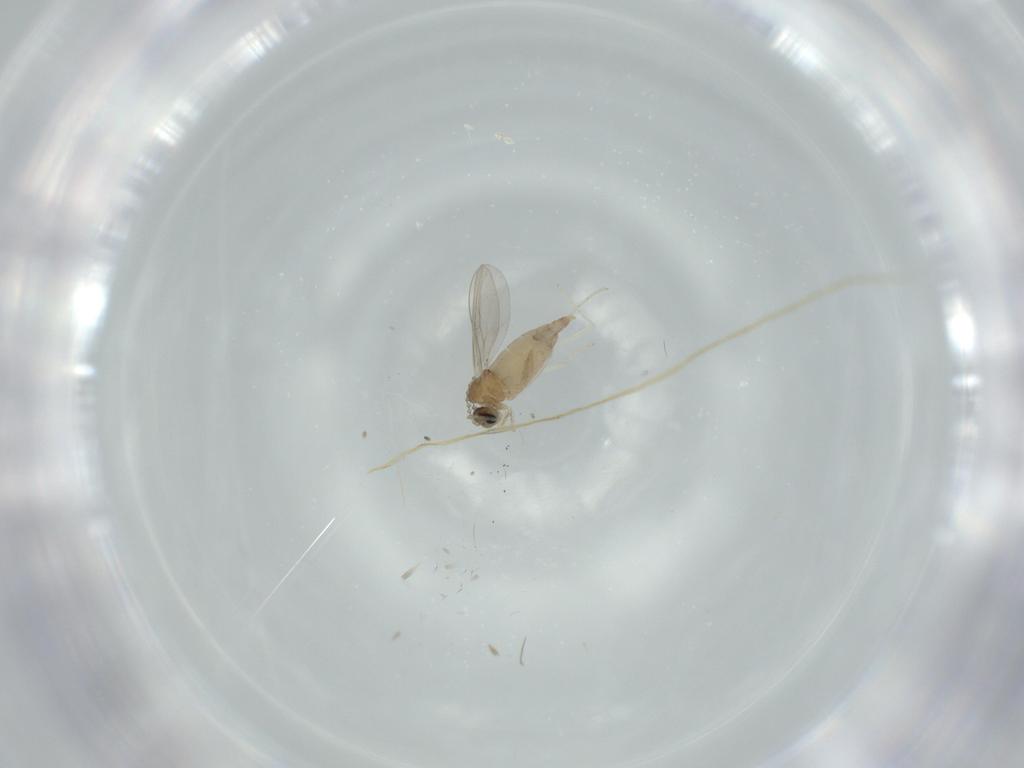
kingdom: Animalia
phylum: Arthropoda
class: Insecta
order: Diptera
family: Cecidomyiidae
